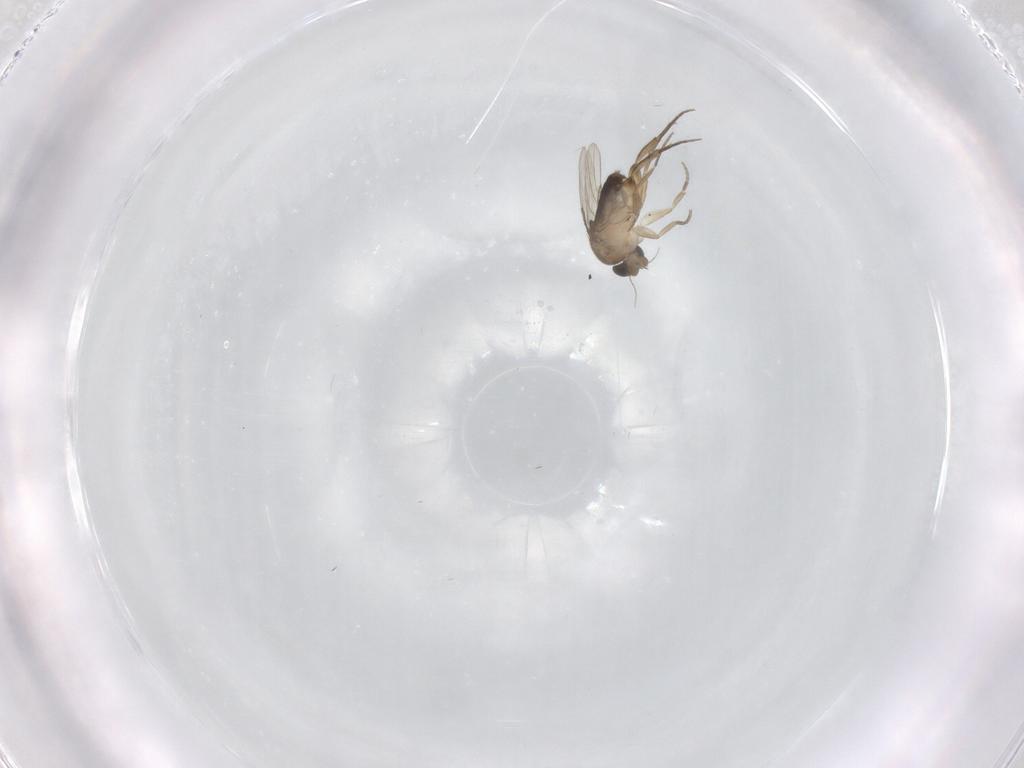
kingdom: Animalia
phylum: Arthropoda
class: Insecta
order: Diptera
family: Limoniidae
